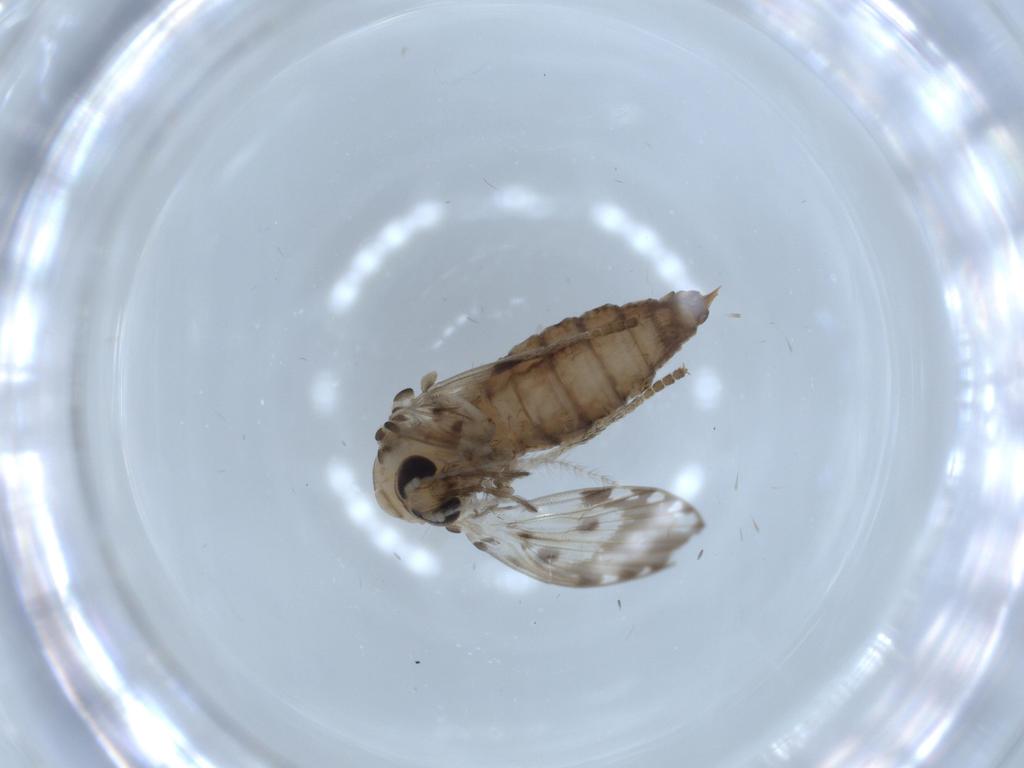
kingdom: Animalia
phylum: Arthropoda
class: Insecta
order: Diptera
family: Psychodidae
